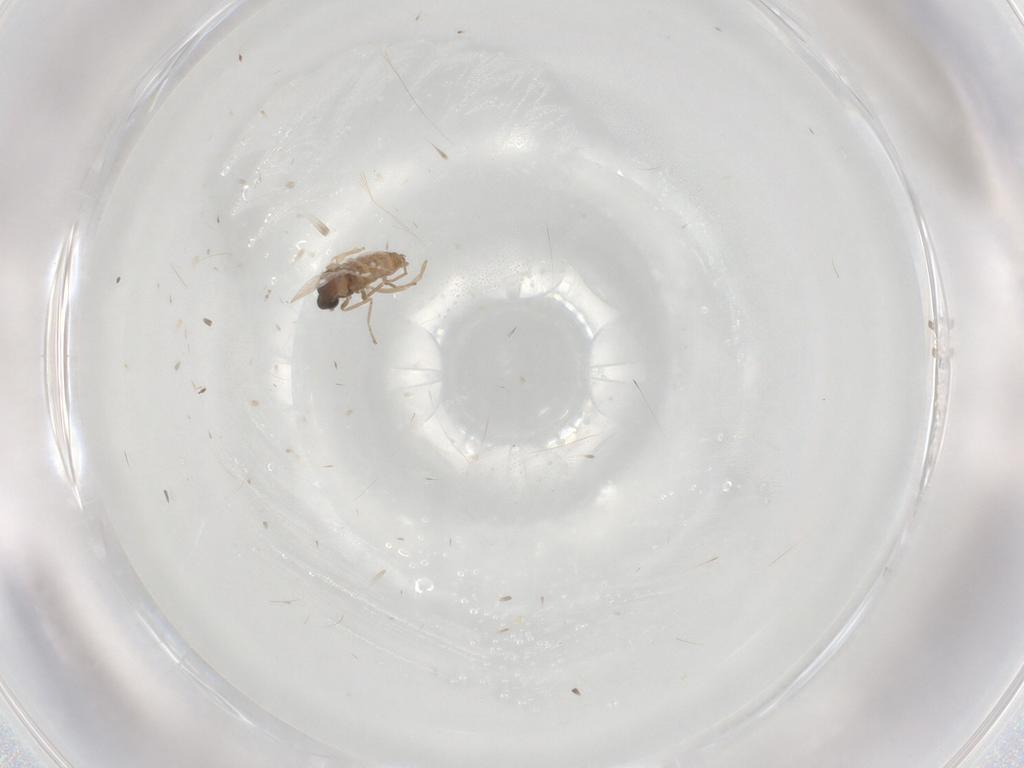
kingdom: Animalia
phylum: Arthropoda
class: Insecta
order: Diptera
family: Cecidomyiidae
